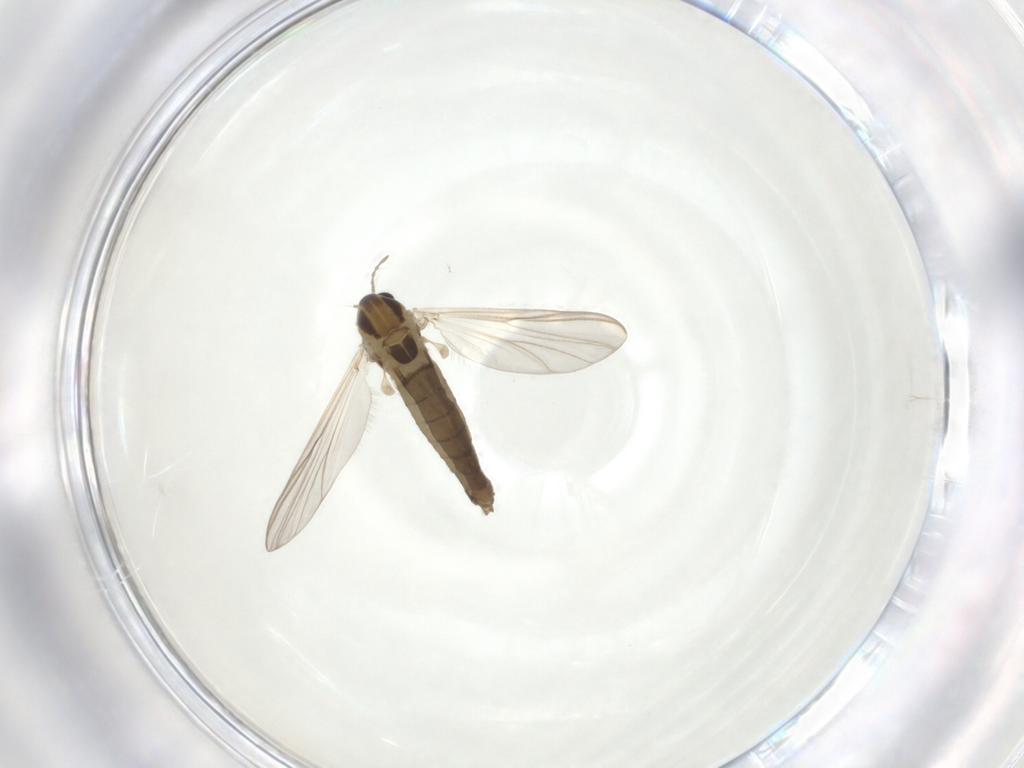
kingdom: Animalia
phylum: Arthropoda
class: Insecta
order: Diptera
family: Chironomidae
